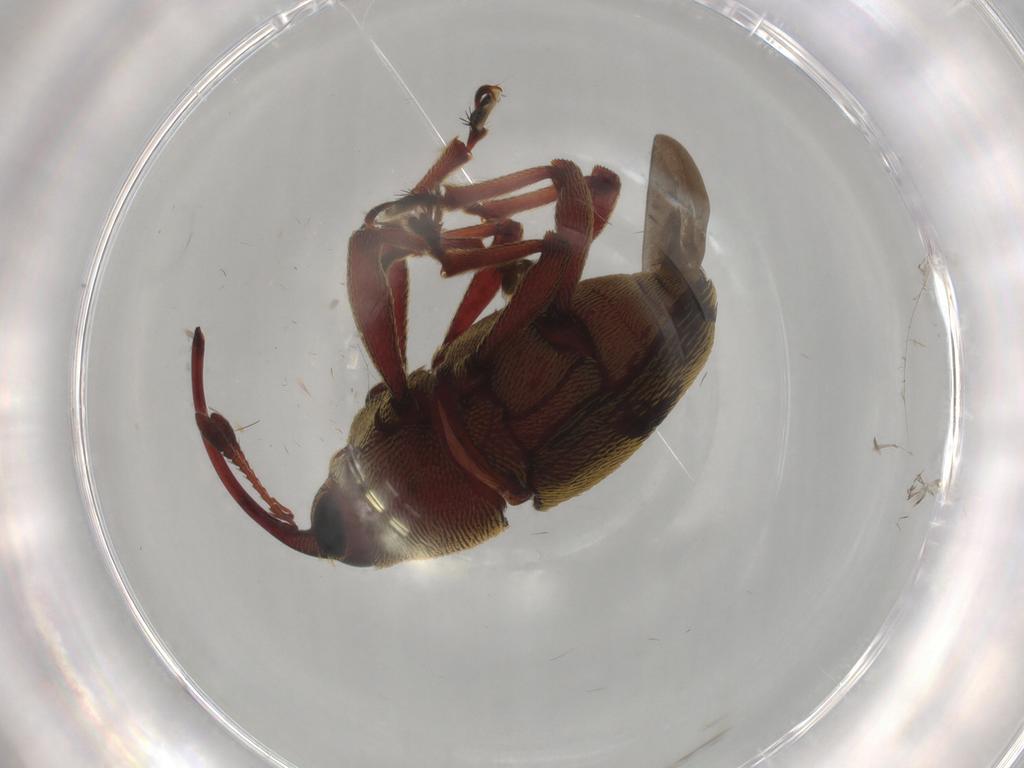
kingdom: Animalia
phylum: Arthropoda
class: Insecta
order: Coleoptera
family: Curculionidae
